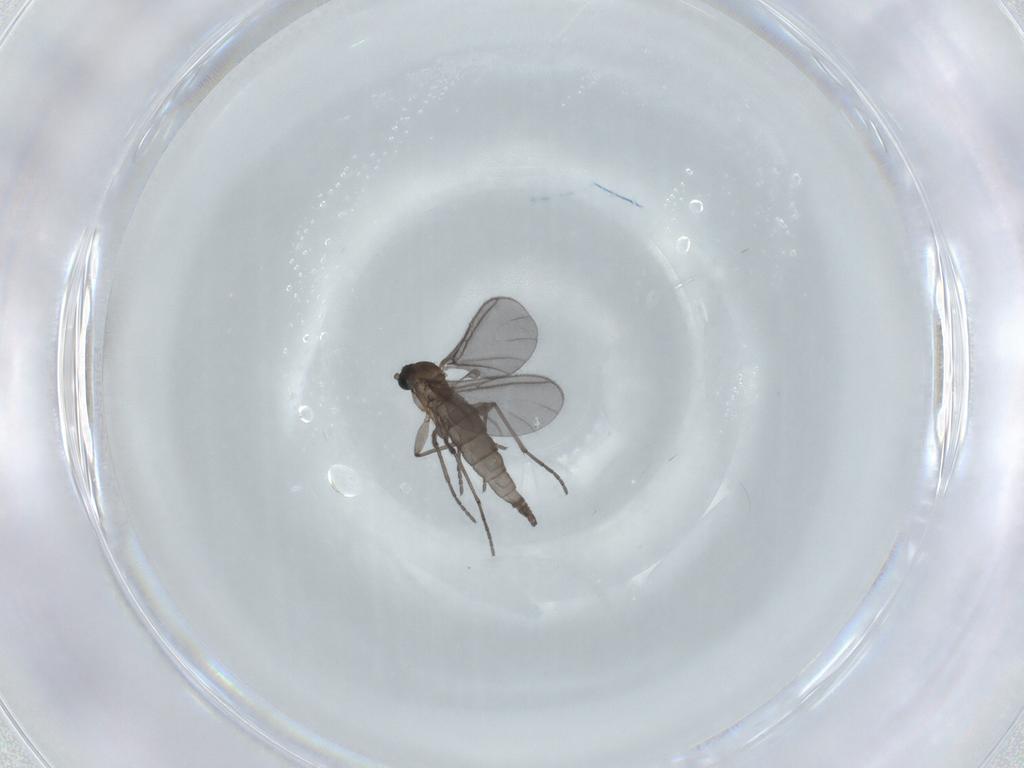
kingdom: Animalia
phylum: Arthropoda
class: Insecta
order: Diptera
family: Sciaridae
